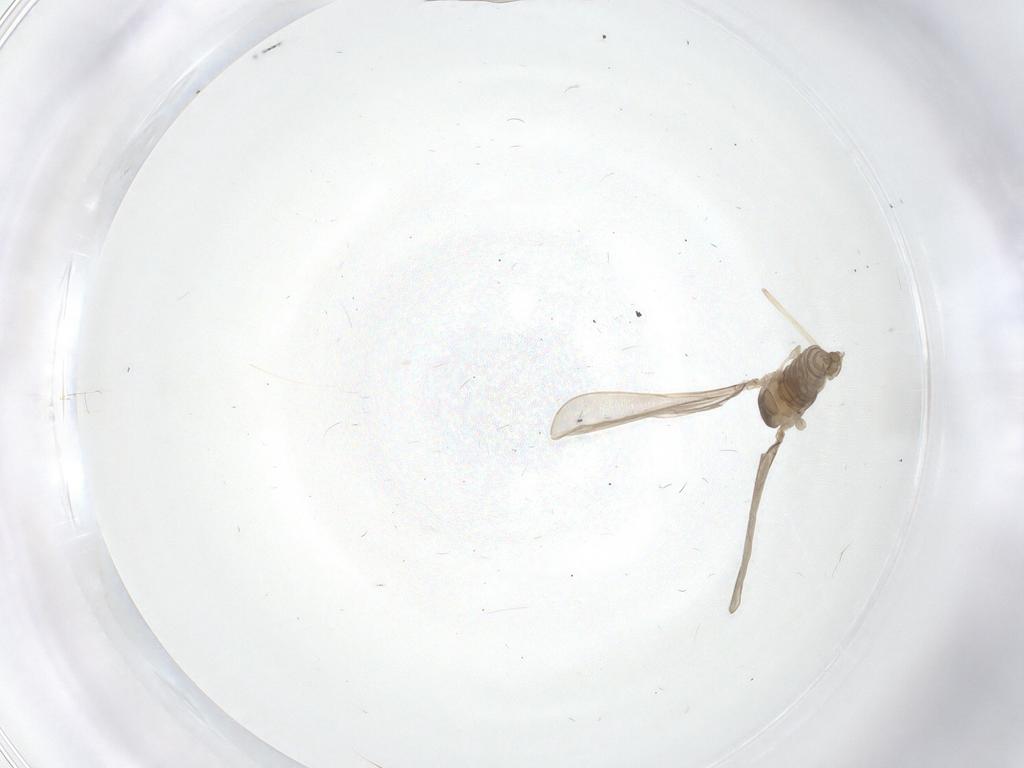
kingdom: Animalia
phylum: Arthropoda
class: Insecta
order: Diptera
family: Cecidomyiidae
